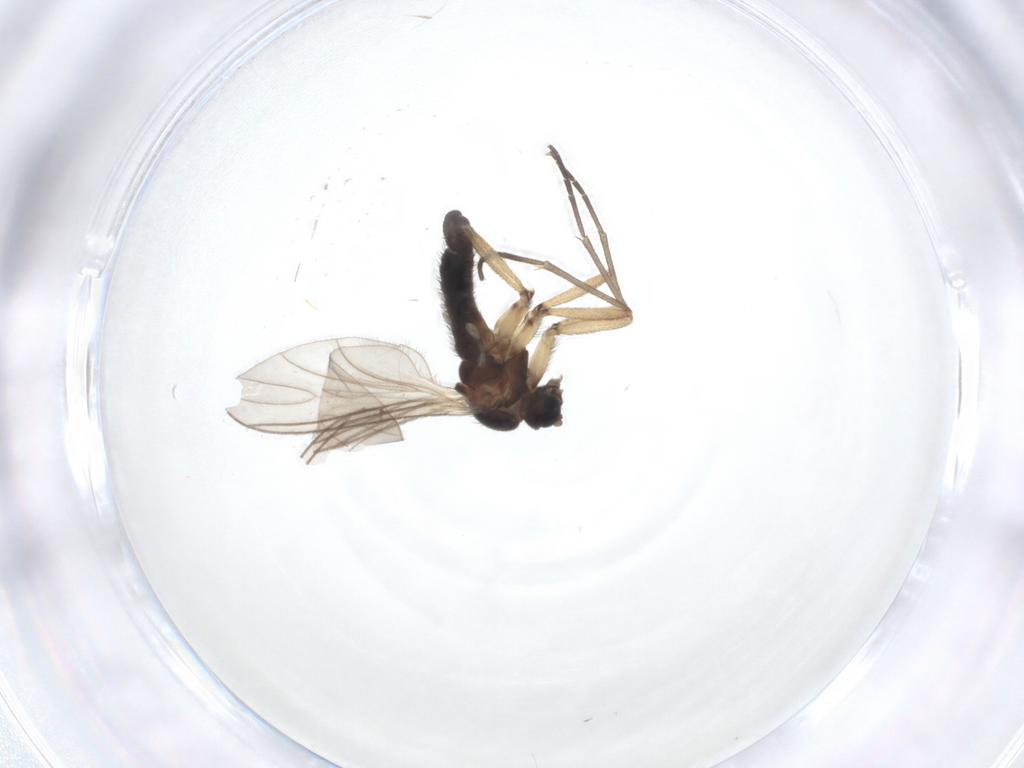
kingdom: Animalia
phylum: Arthropoda
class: Insecta
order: Diptera
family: Sciaridae
